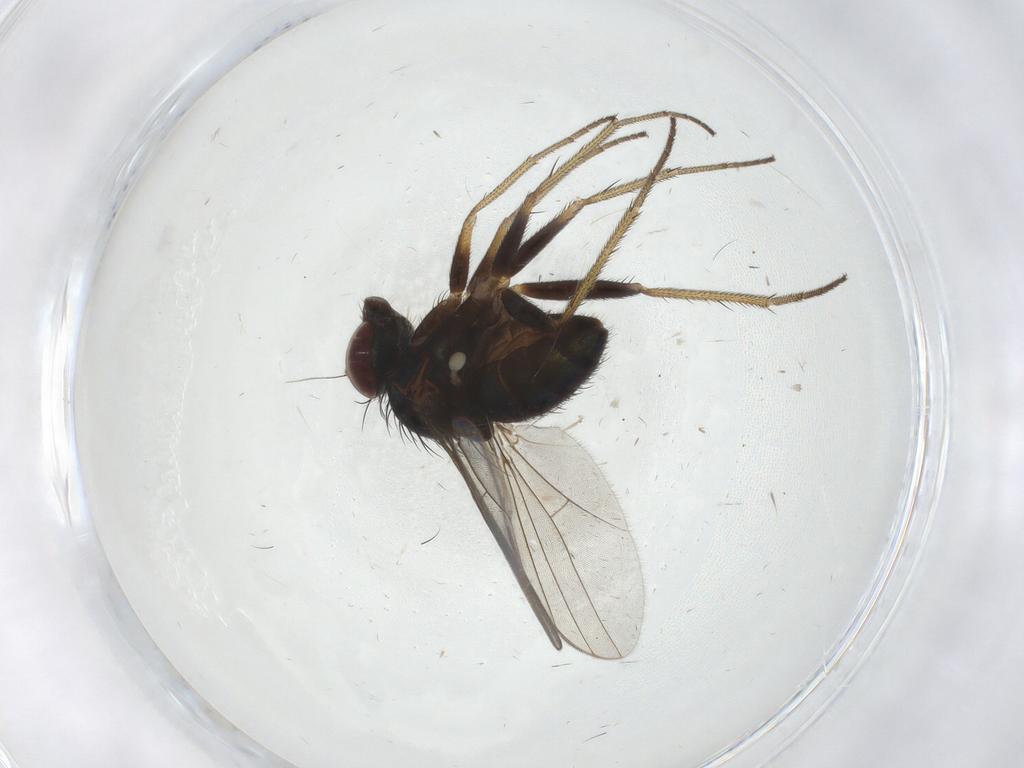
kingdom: Animalia
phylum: Arthropoda
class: Insecta
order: Diptera
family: Dolichopodidae
